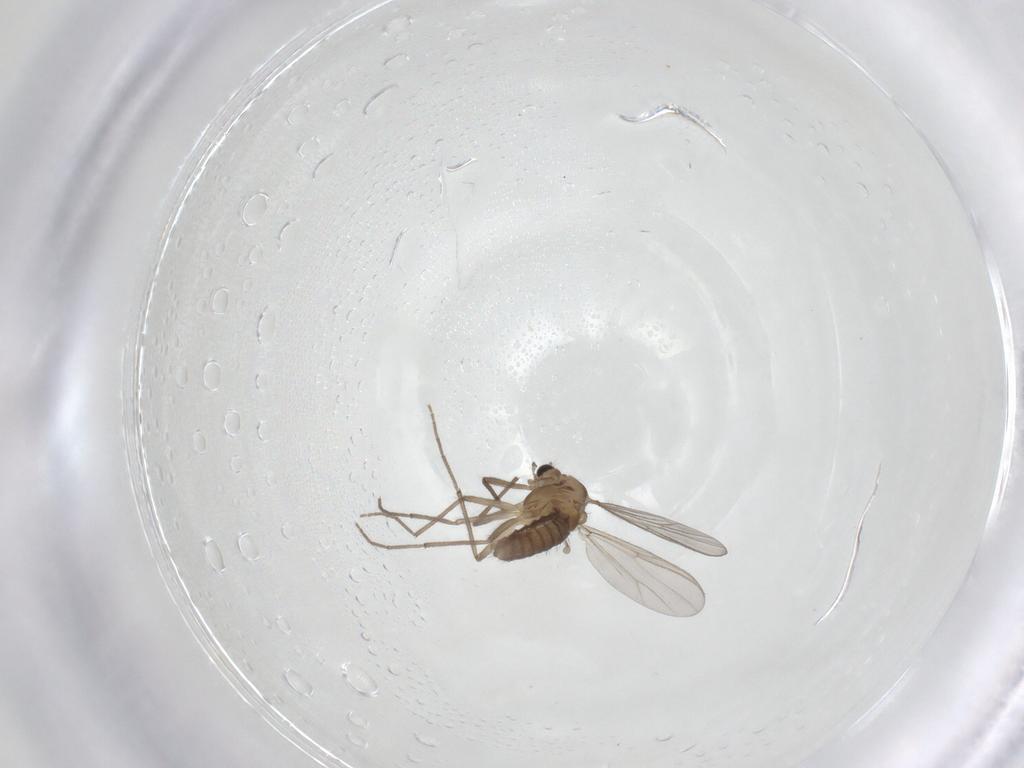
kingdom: Animalia
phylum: Arthropoda
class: Insecta
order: Diptera
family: Chironomidae
